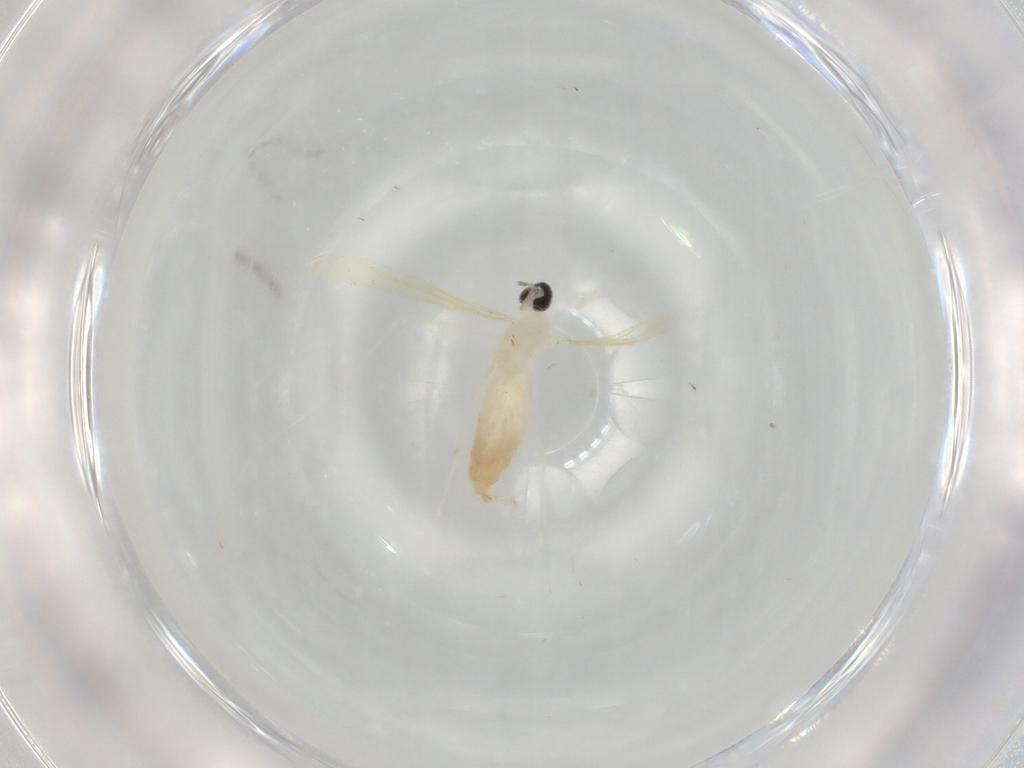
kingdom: Animalia
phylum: Arthropoda
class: Insecta
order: Diptera
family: Cecidomyiidae
